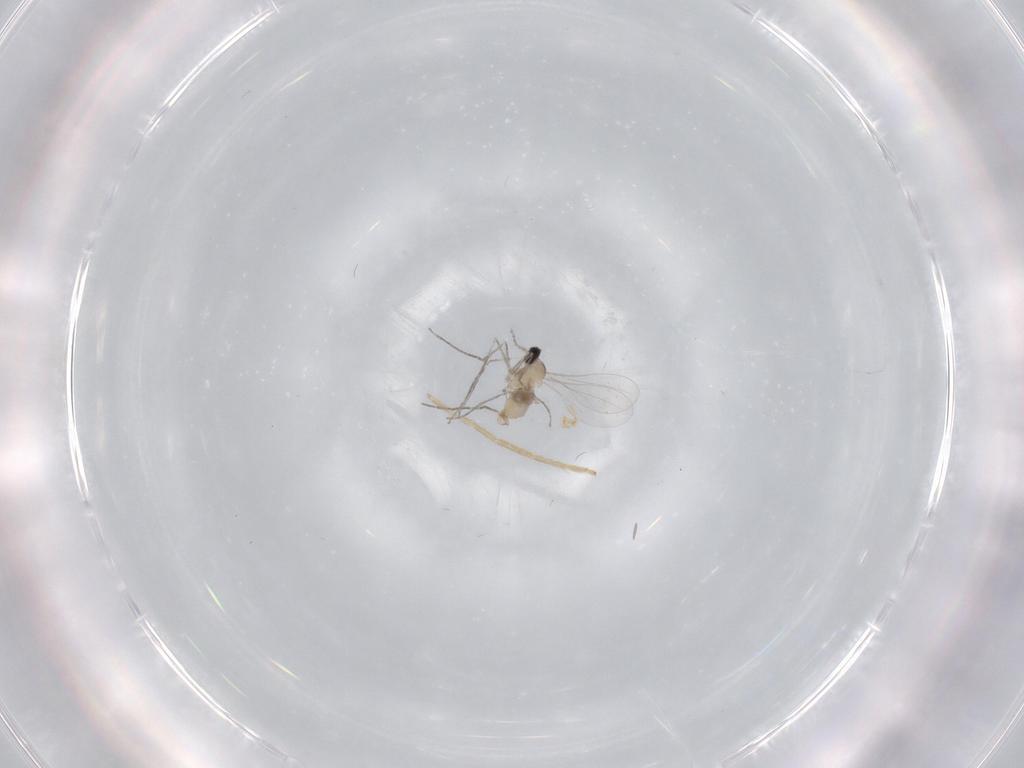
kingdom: Animalia
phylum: Arthropoda
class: Insecta
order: Diptera
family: Cecidomyiidae
